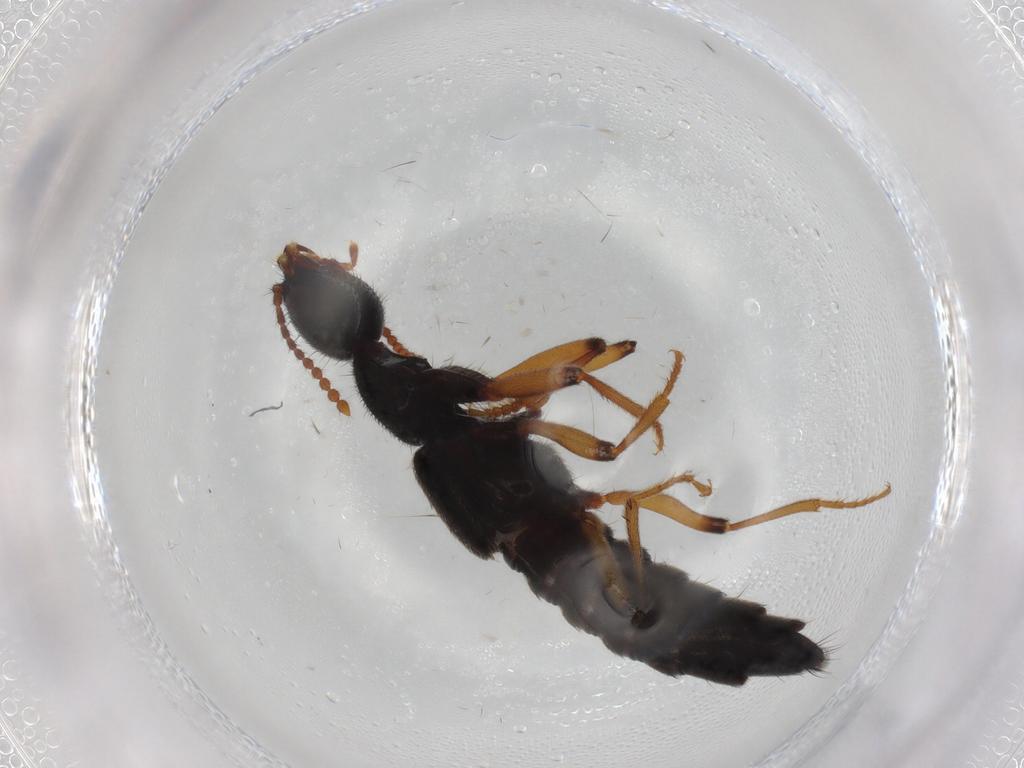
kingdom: Animalia
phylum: Arthropoda
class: Insecta
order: Coleoptera
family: Staphylinidae
